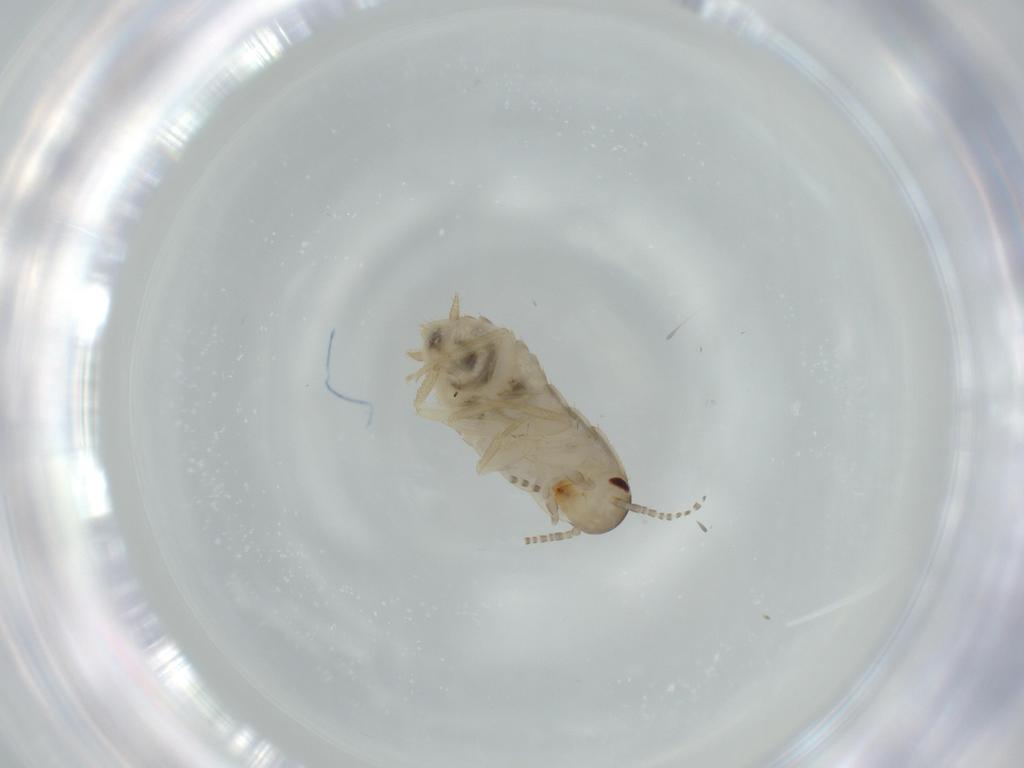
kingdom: Animalia
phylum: Arthropoda
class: Insecta
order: Blattodea
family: Ectobiidae
